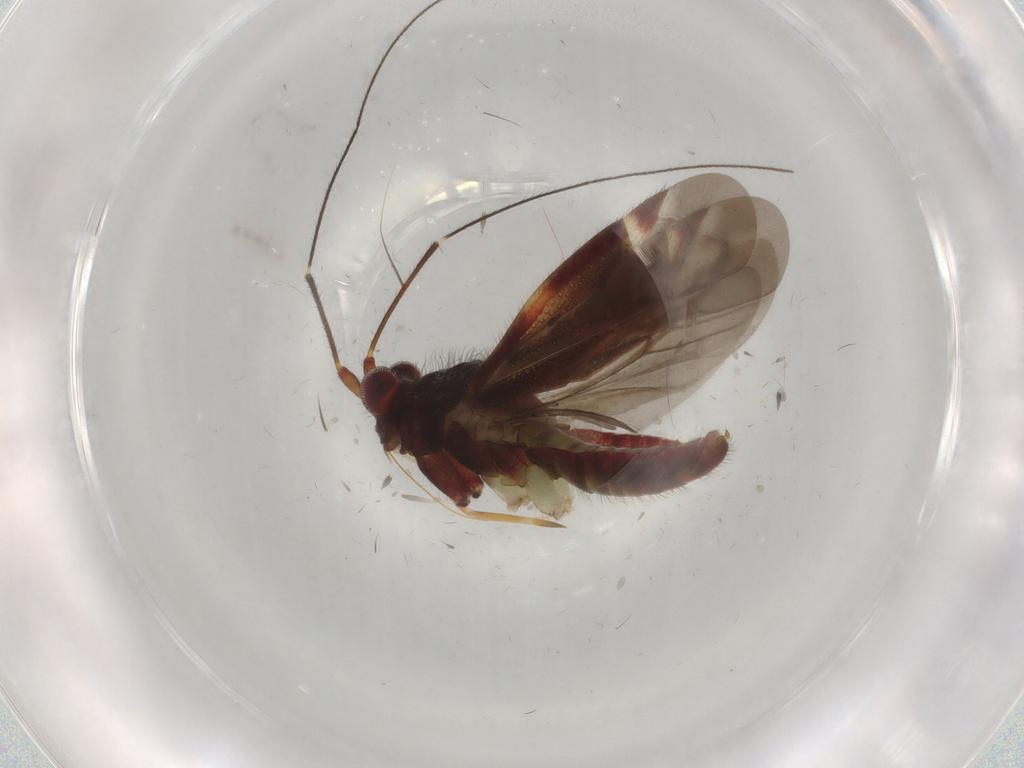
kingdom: Animalia
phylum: Arthropoda
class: Insecta
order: Hemiptera
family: Miridae
